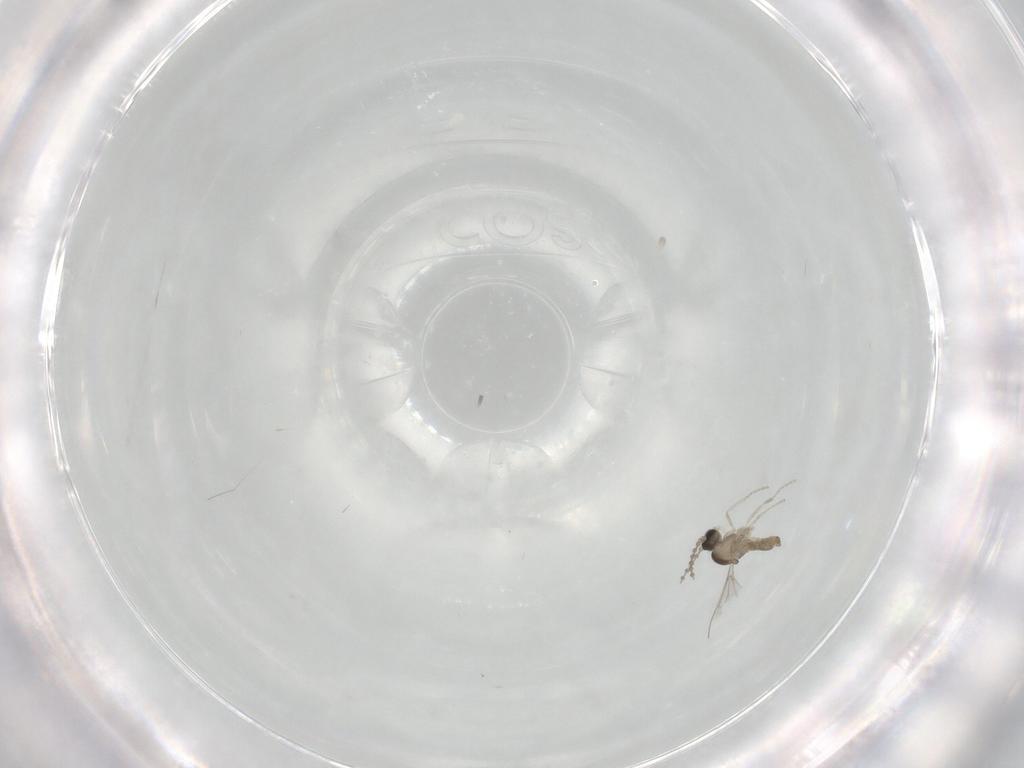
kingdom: Animalia
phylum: Arthropoda
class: Insecta
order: Diptera
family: Cecidomyiidae
